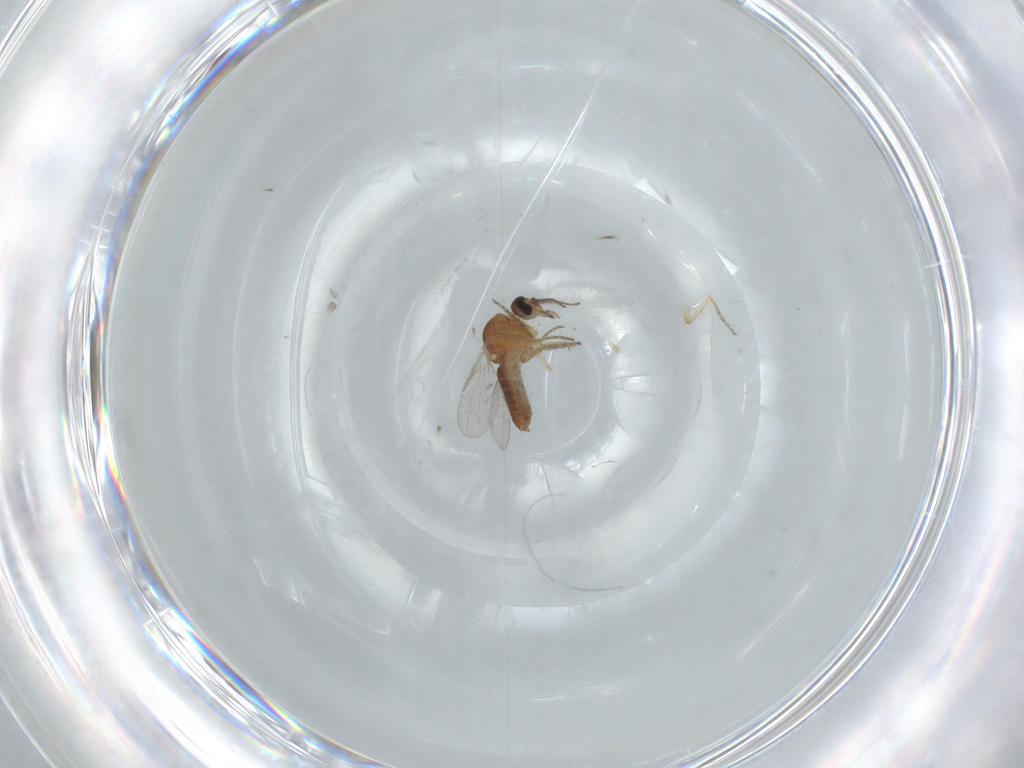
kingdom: Animalia
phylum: Arthropoda
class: Insecta
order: Diptera
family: Ceratopogonidae
